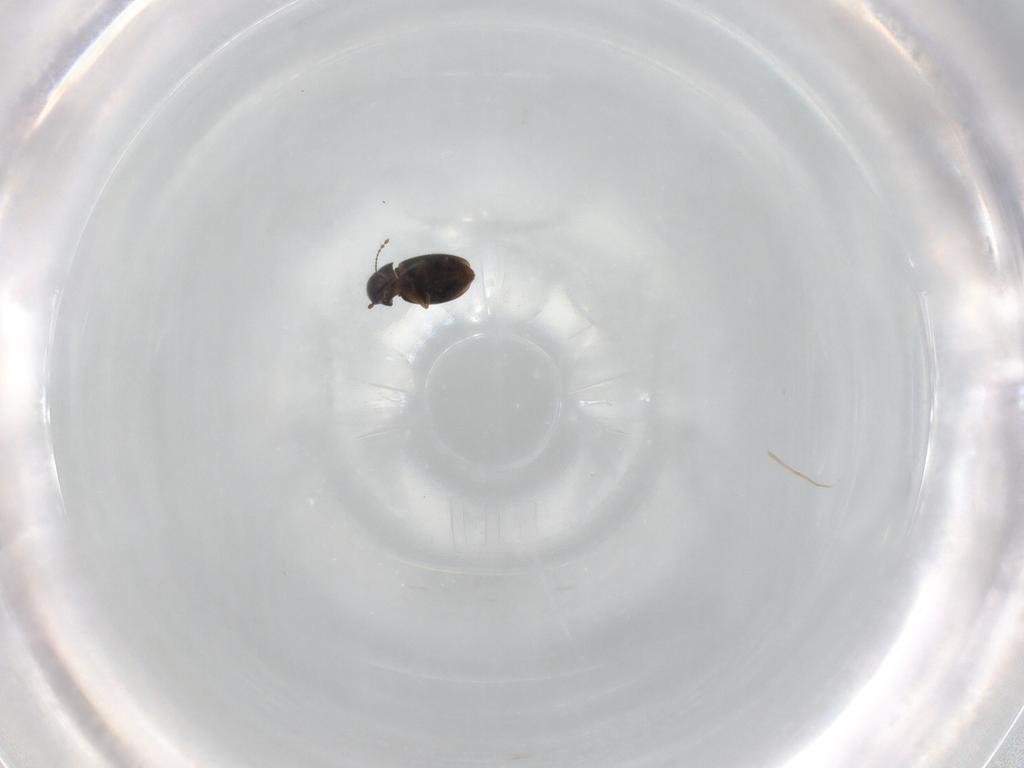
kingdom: Animalia
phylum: Arthropoda
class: Insecta
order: Coleoptera
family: Ptiliidae
